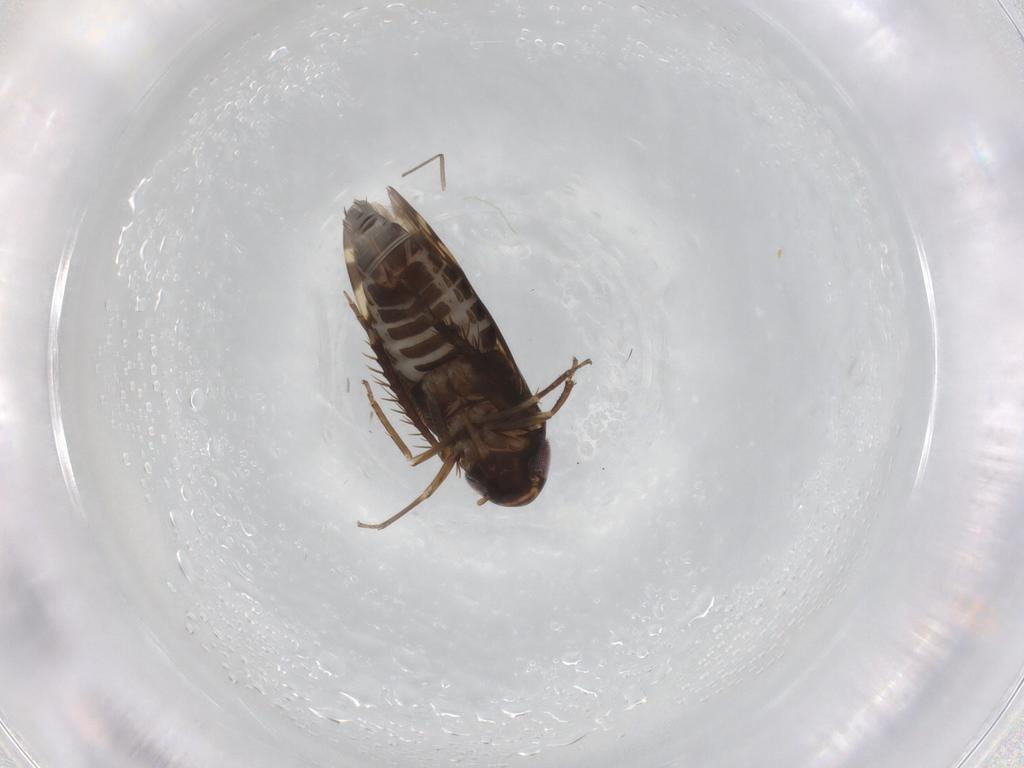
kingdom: Animalia
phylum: Arthropoda
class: Insecta
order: Hemiptera
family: Cicadellidae
